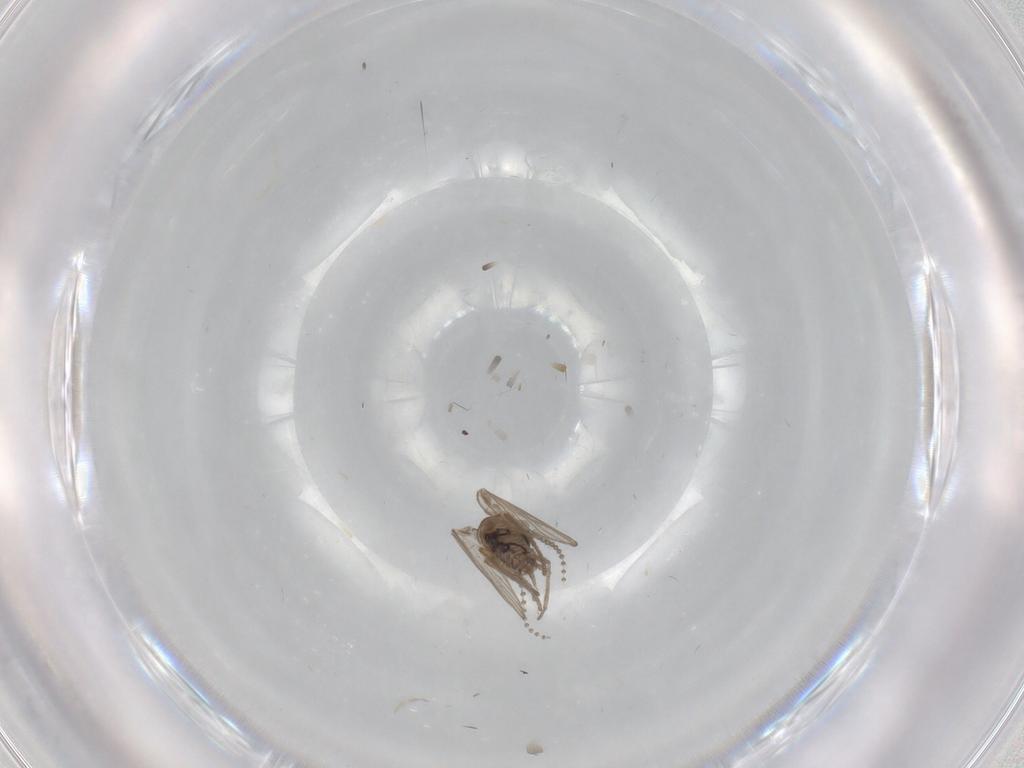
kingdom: Animalia
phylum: Arthropoda
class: Insecta
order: Diptera
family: Psychodidae
